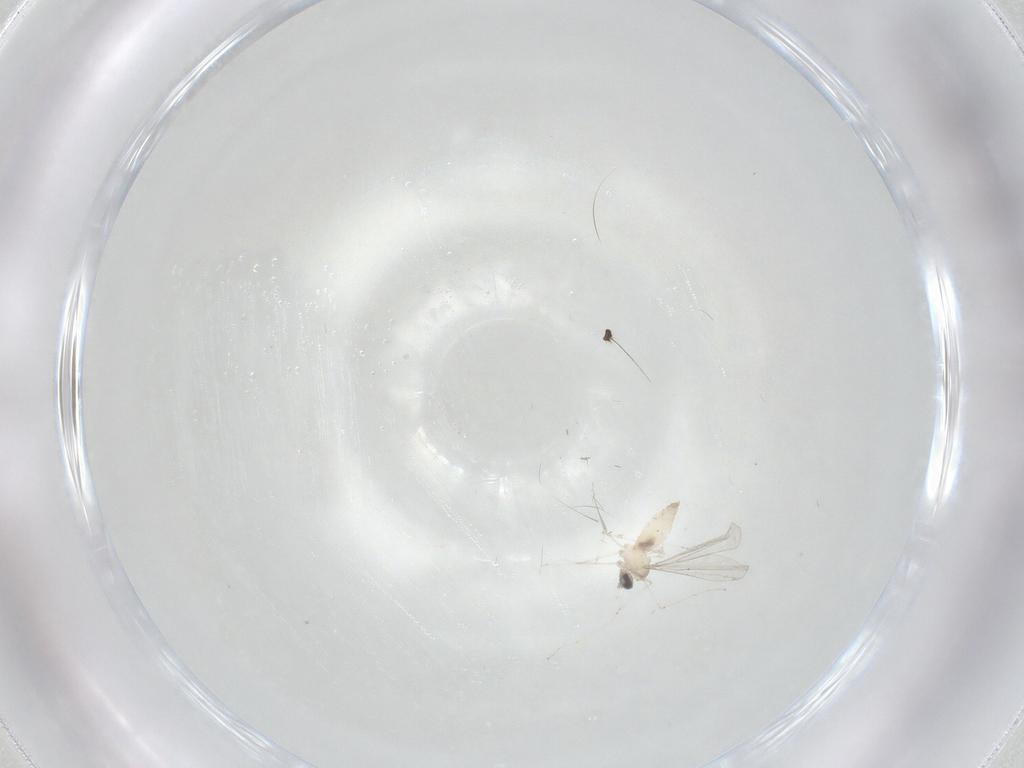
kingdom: Animalia
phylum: Arthropoda
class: Insecta
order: Diptera
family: Cecidomyiidae
